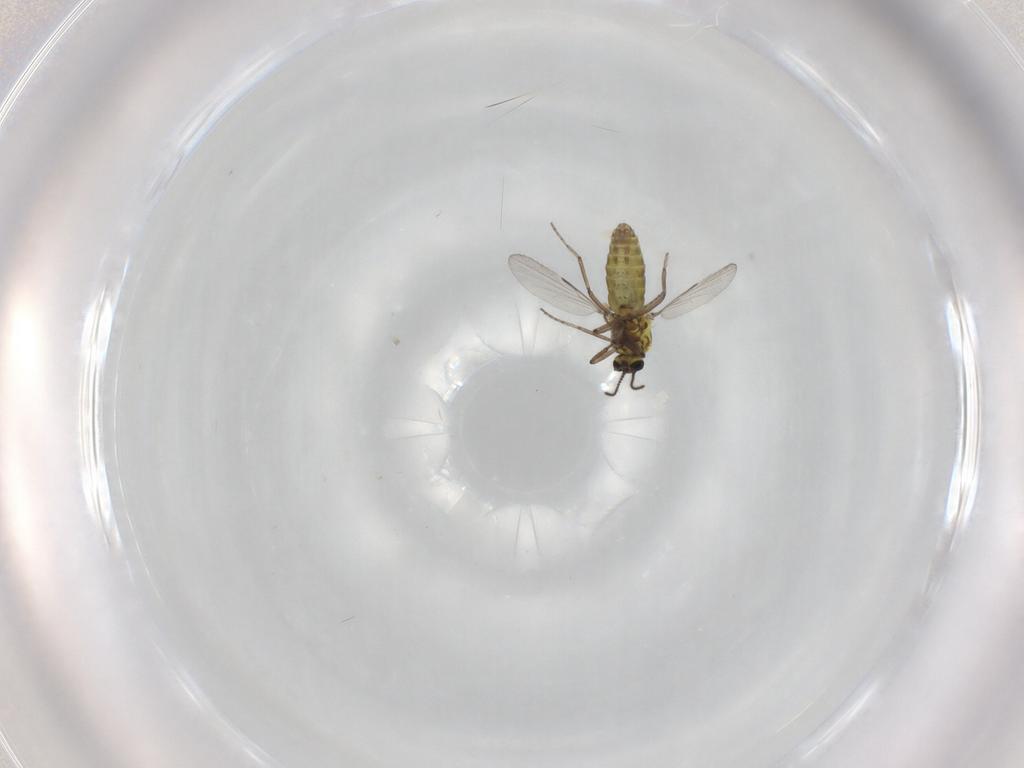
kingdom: Animalia
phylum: Arthropoda
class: Insecta
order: Diptera
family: Ceratopogonidae
